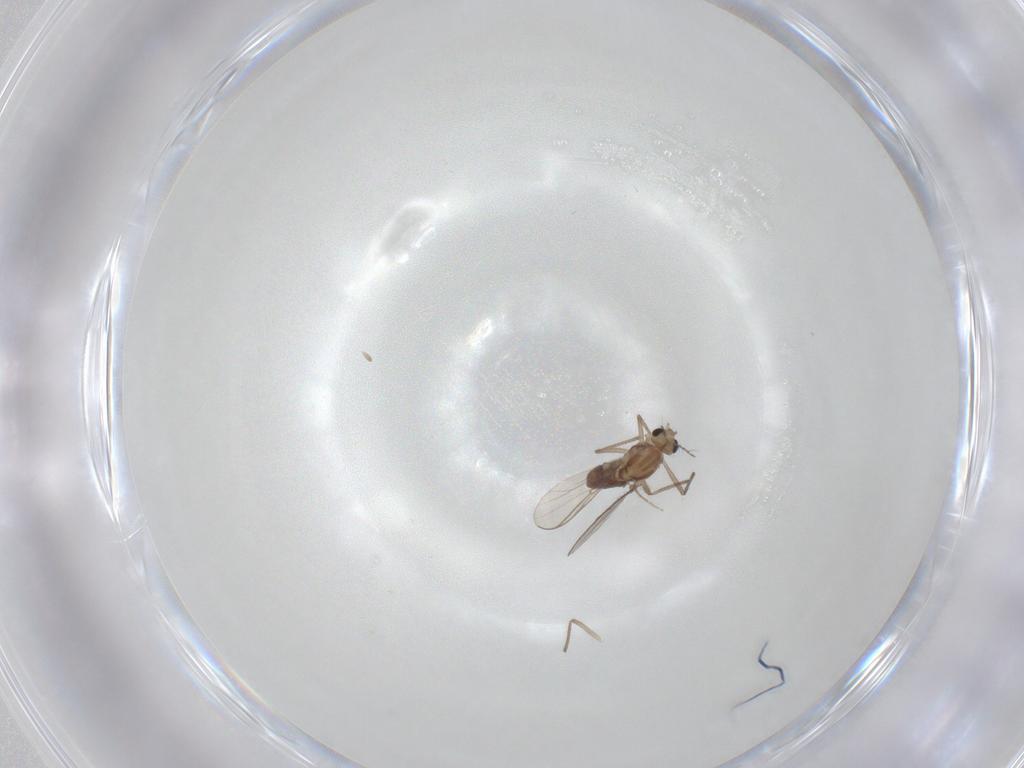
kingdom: Animalia
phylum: Arthropoda
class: Insecta
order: Diptera
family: Chironomidae
